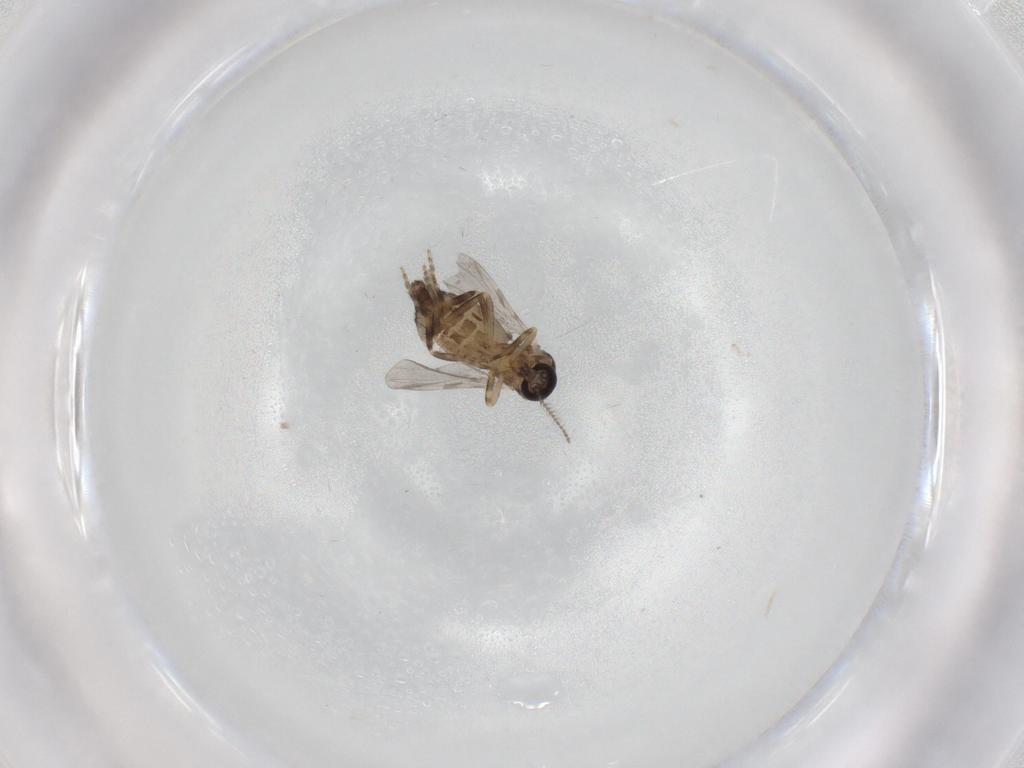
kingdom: Animalia
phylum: Arthropoda
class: Insecta
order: Diptera
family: Ceratopogonidae
